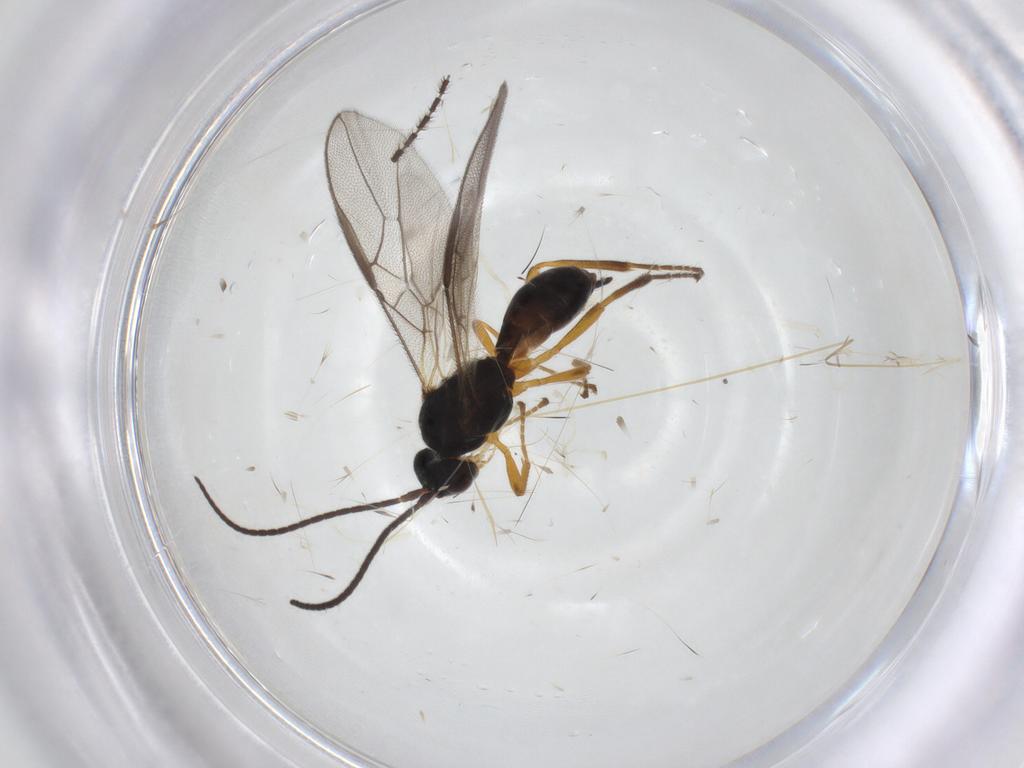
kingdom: Animalia
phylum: Arthropoda
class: Insecta
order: Hymenoptera
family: Braconidae
